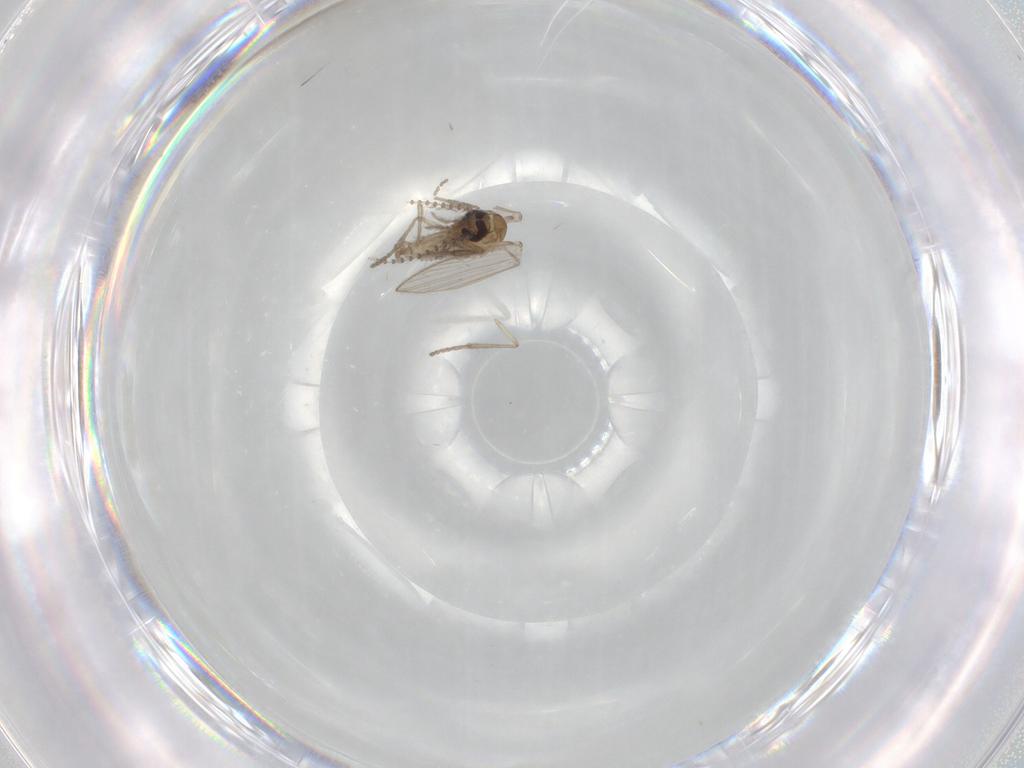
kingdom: Animalia
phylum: Arthropoda
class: Insecta
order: Diptera
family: Psychodidae
